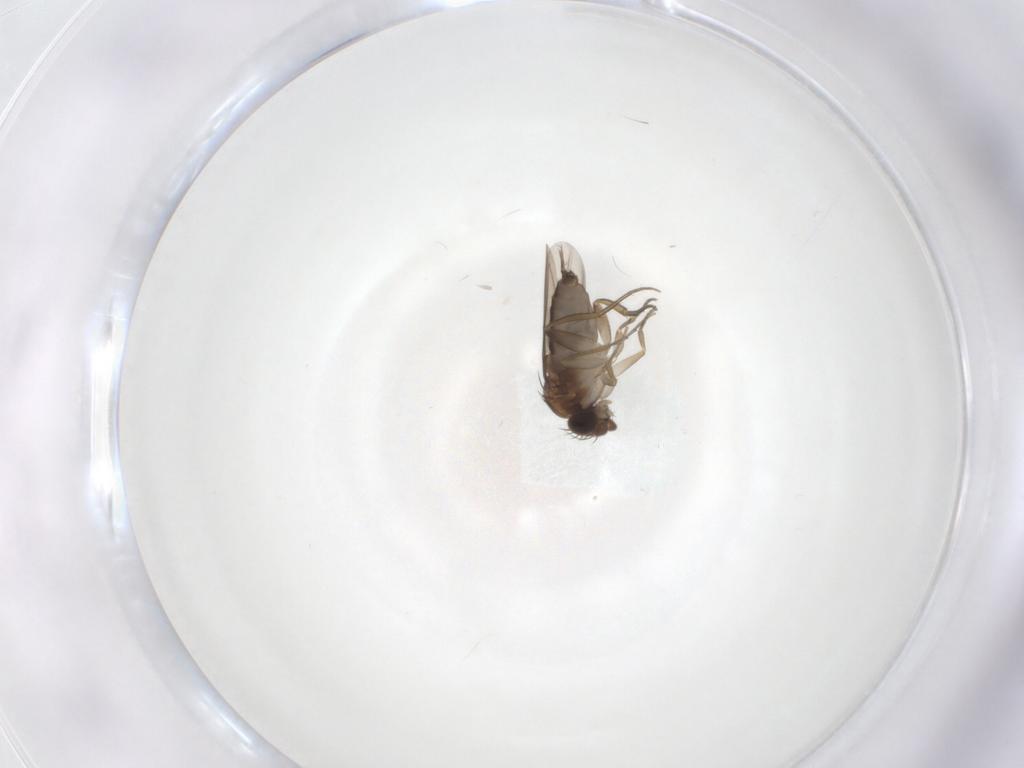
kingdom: Animalia
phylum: Arthropoda
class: Insecta
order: Diptera
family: Phoridae
